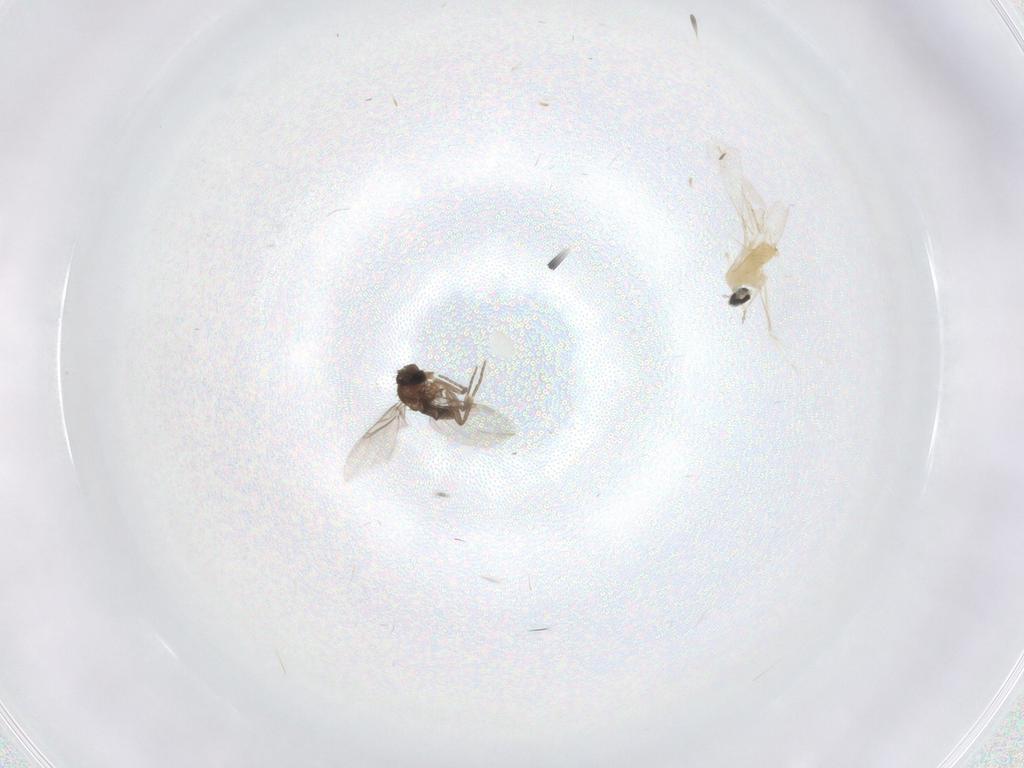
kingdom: Animalia
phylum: Arthropoda
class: Insecta
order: Diptera
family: Cecidomyiidae
